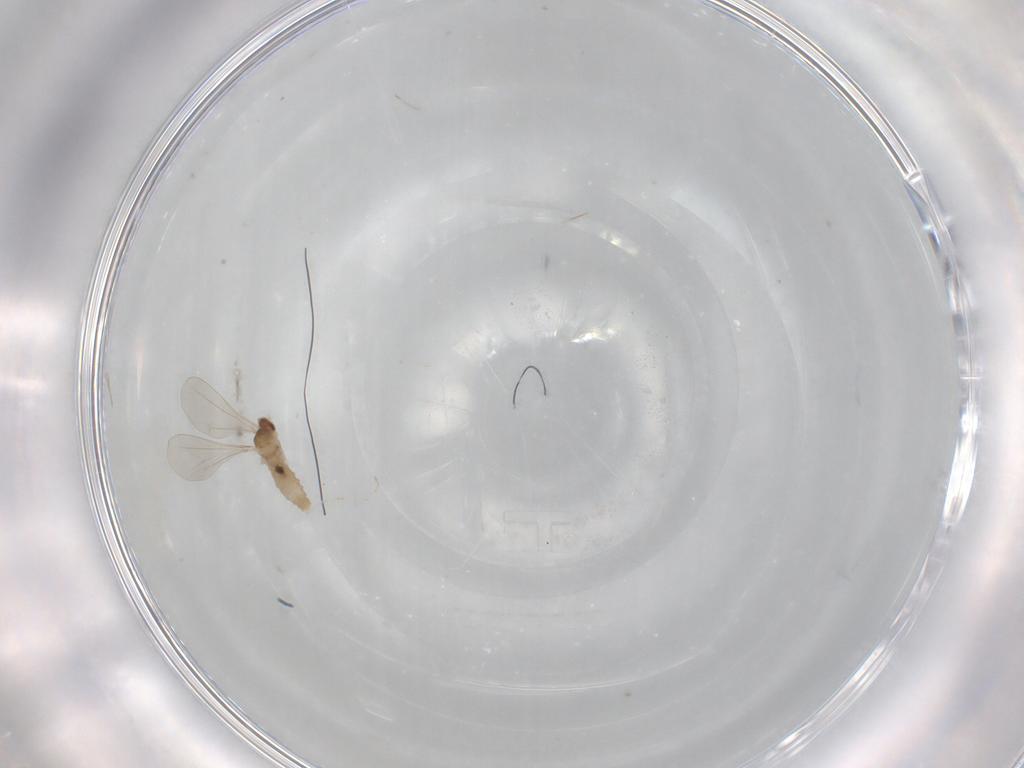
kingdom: Animalia
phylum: Arthropoda
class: Insecta
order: Diptera
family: Cecidomyiidae
